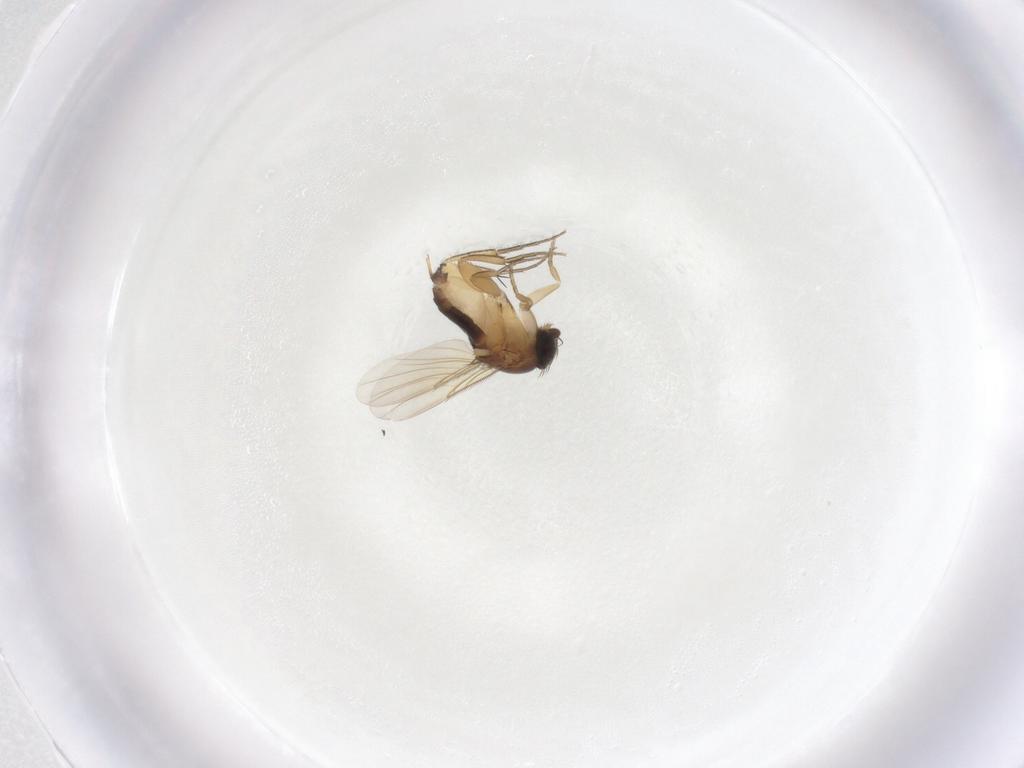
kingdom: Animalia
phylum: Arthropoda
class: Insecta
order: Diptera
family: Phoridae
